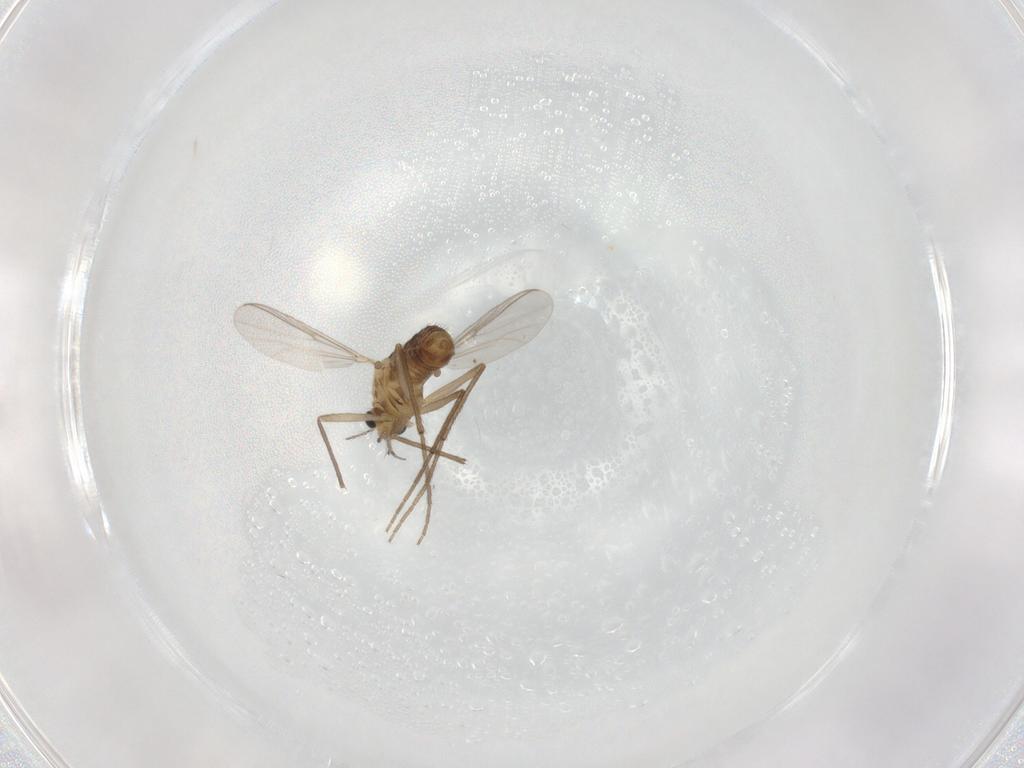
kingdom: Animalia
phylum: Arthropoda
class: Insecta
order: Diptera
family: Chironomidae
